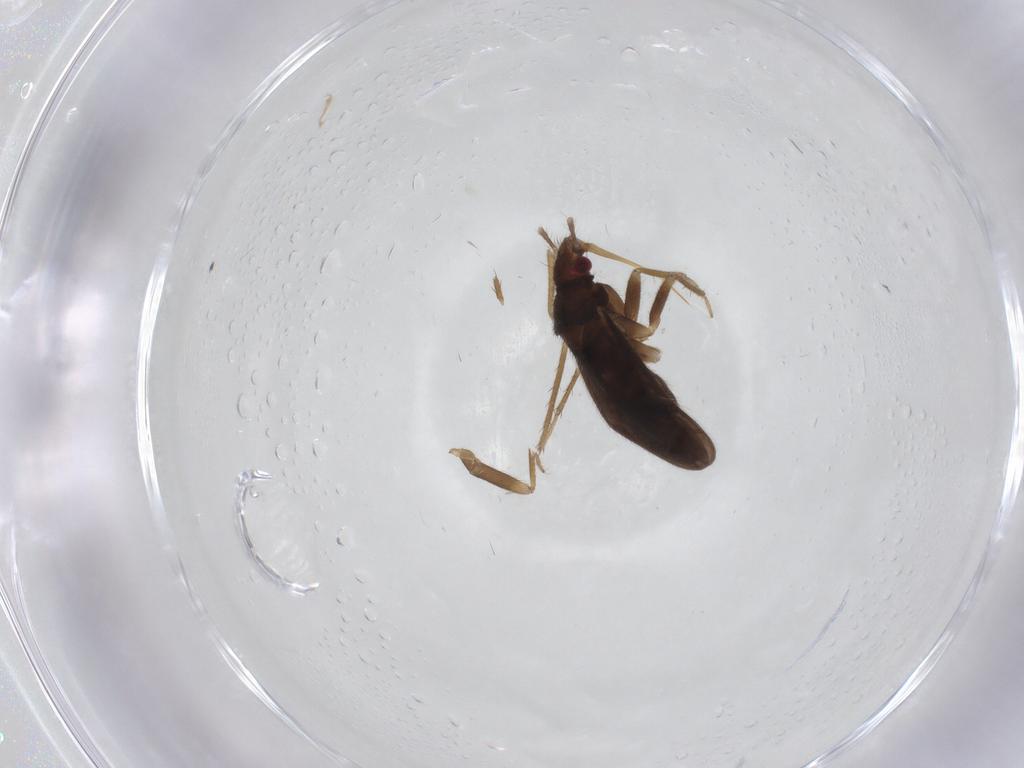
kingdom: Animalia
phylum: Arthropoda
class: Insecta
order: Hemiptera
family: Ceratocombidae
